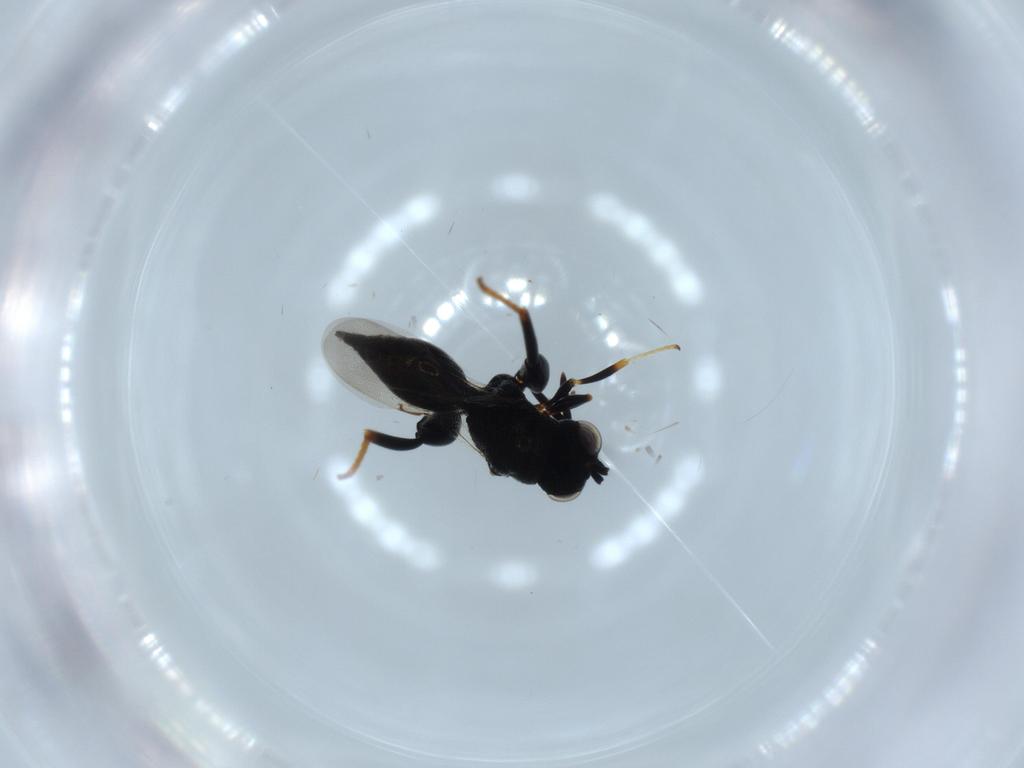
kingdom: Animalia
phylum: Arthropoda
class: Insecta
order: Hymenoptera
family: Figitidae
